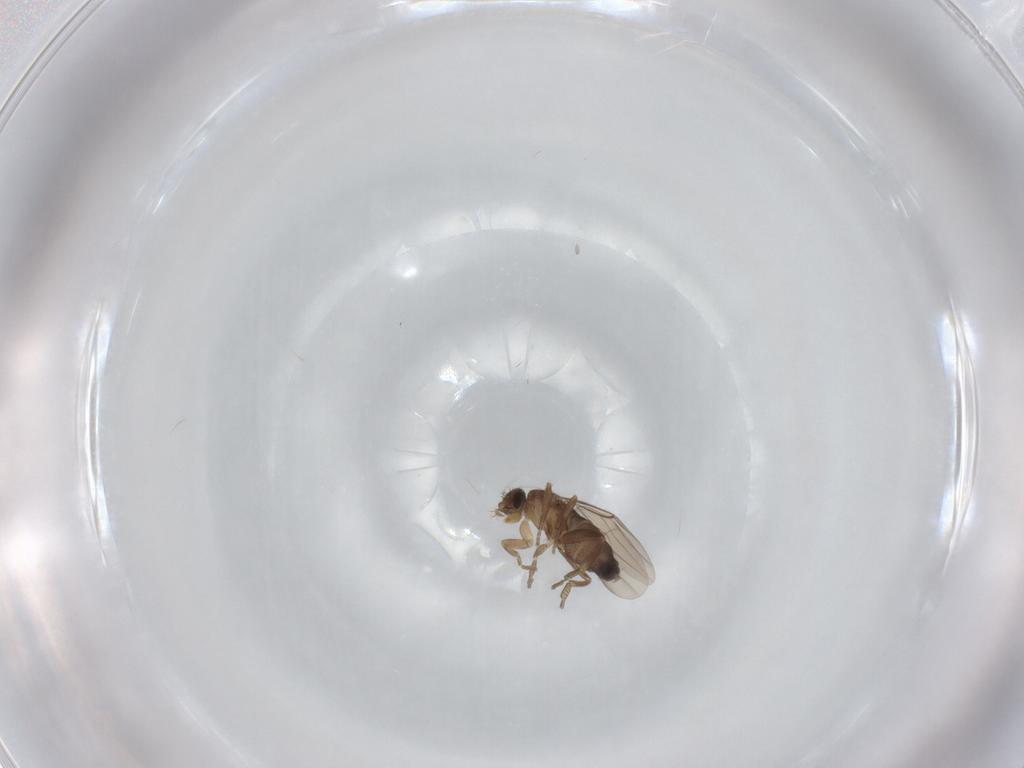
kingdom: Animalia
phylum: Arthropoda
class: Insecta
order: Diptera
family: Phoridae
